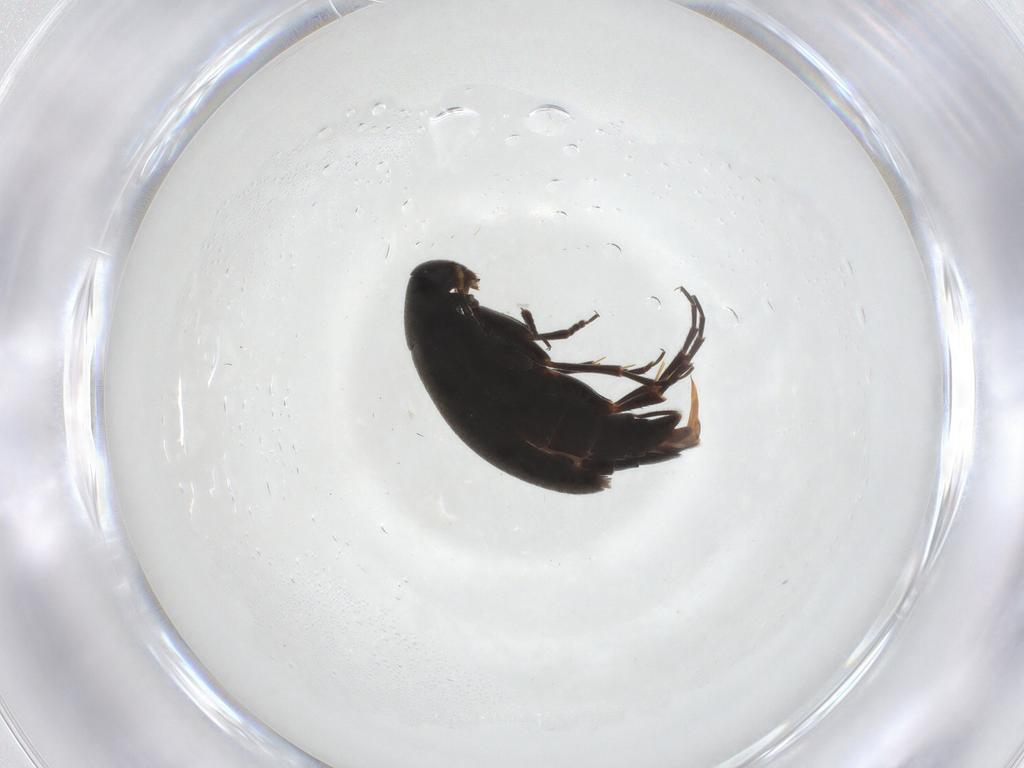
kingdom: Animalia
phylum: Arthropoda
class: Insecta
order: Coleoptera
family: Scraptiidae
